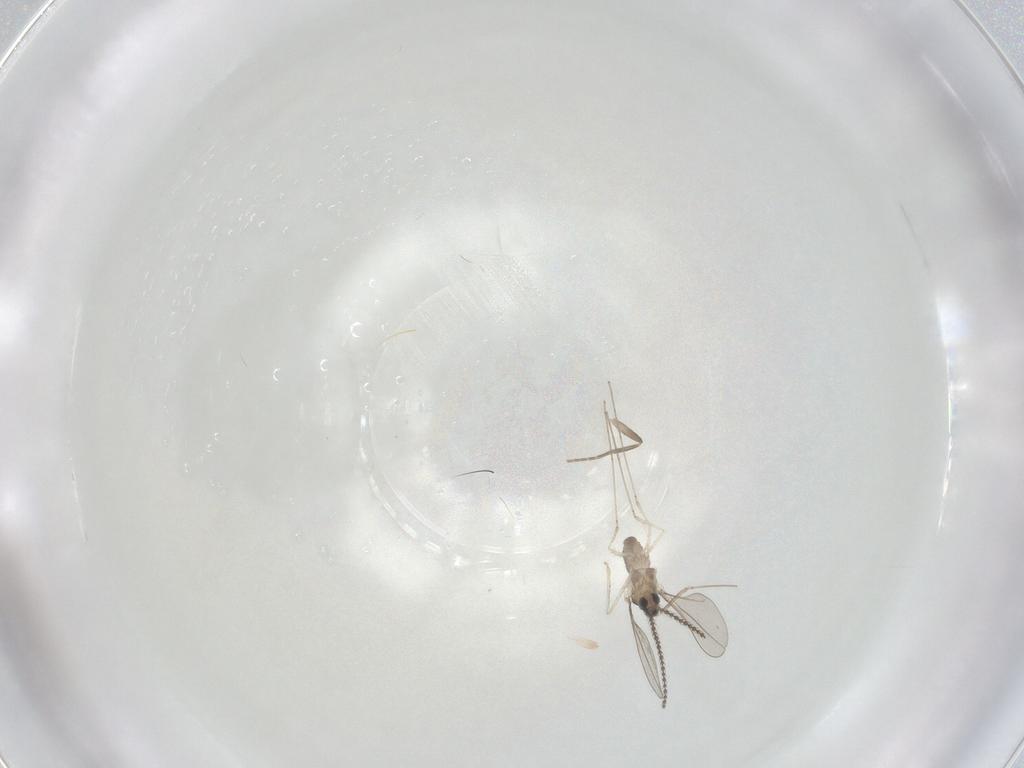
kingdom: Animalia
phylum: Arthropoda
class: Insecta
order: Diptera
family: Cecidomyiidae
